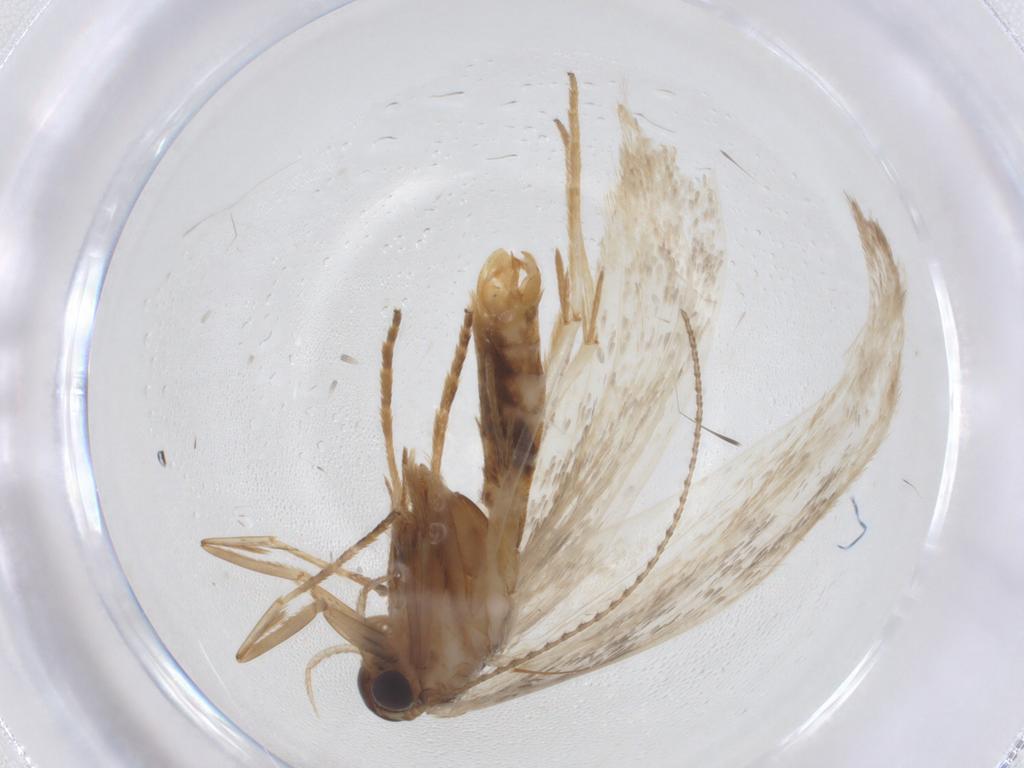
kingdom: Animalia
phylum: Arthropoda
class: Insecta
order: Lepidoptera
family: Erebidae
